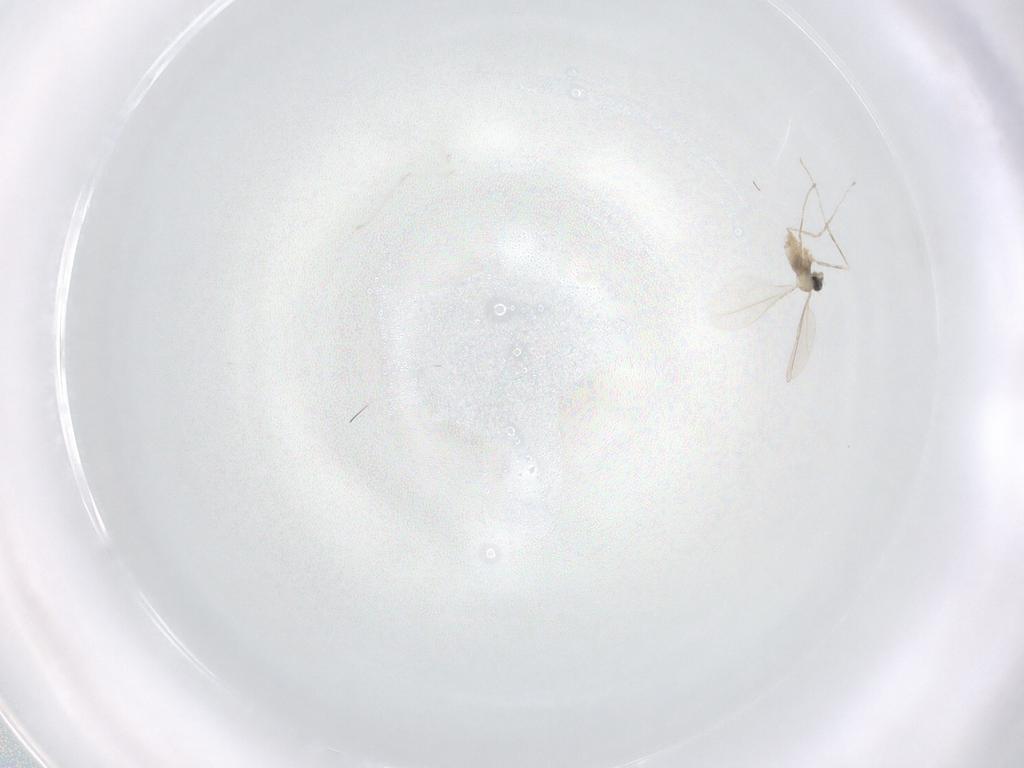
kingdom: Animalia
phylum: Arthropoda
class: Insecta
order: Diptera
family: Cecidomyiidae
